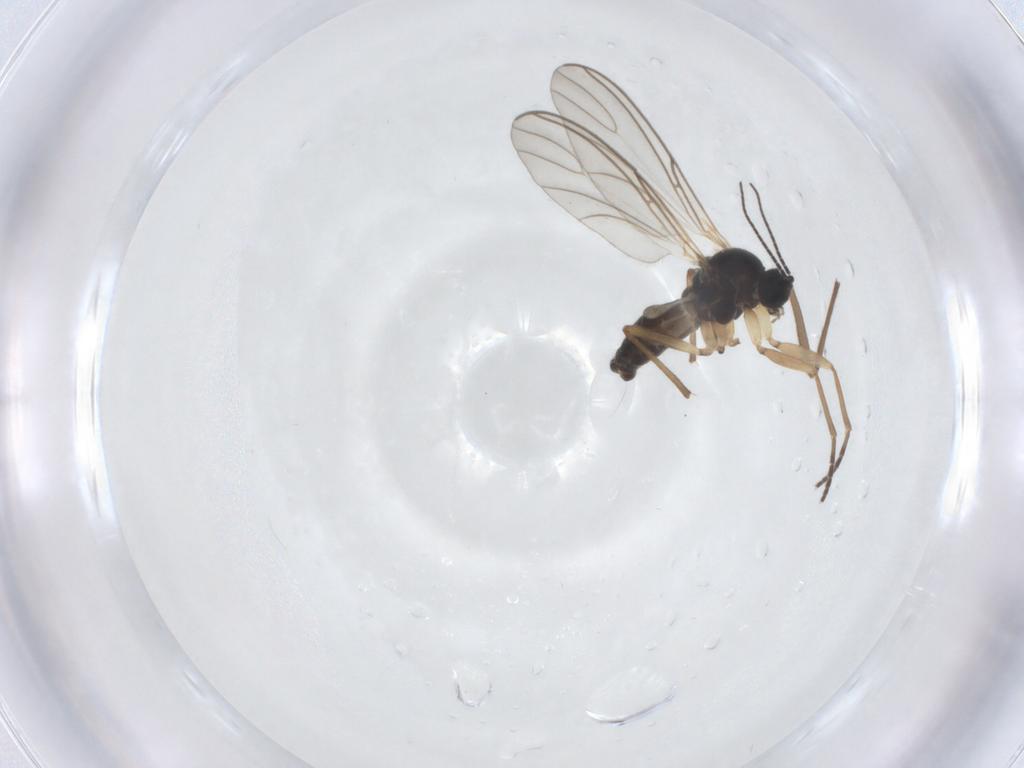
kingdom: Animalia
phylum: Arthropoda
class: Insecta
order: Diptera
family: Chironomidae
